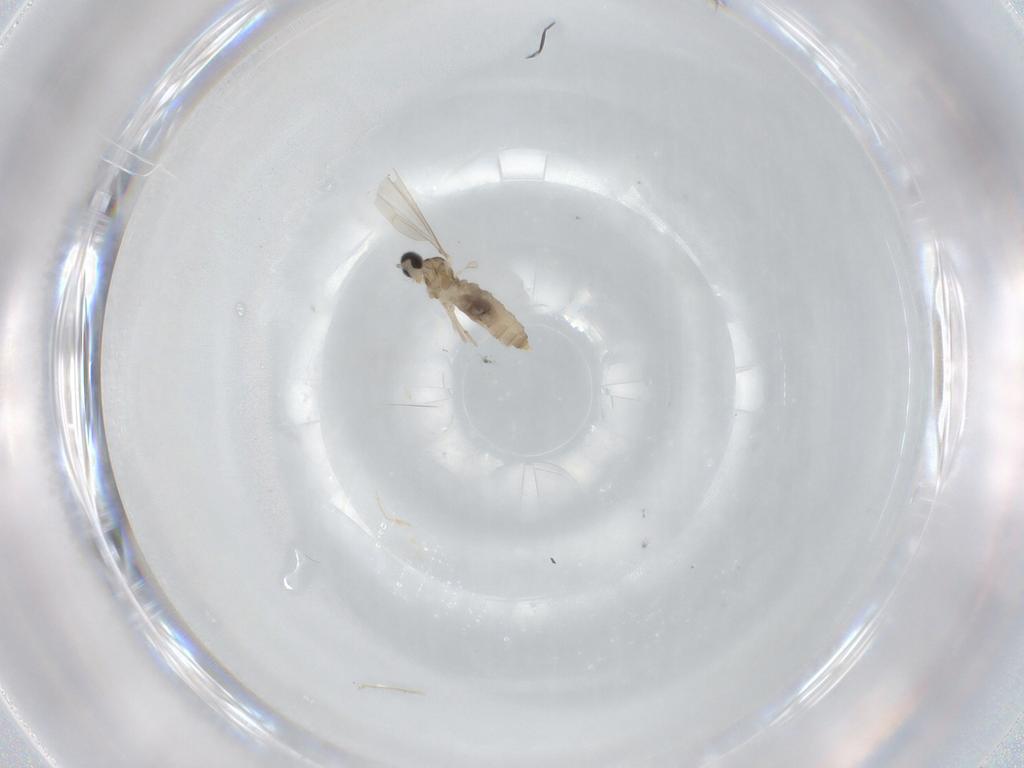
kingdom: Animalia
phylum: Arthropoda
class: Insecta
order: Diptera
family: Cecidomyiidae
